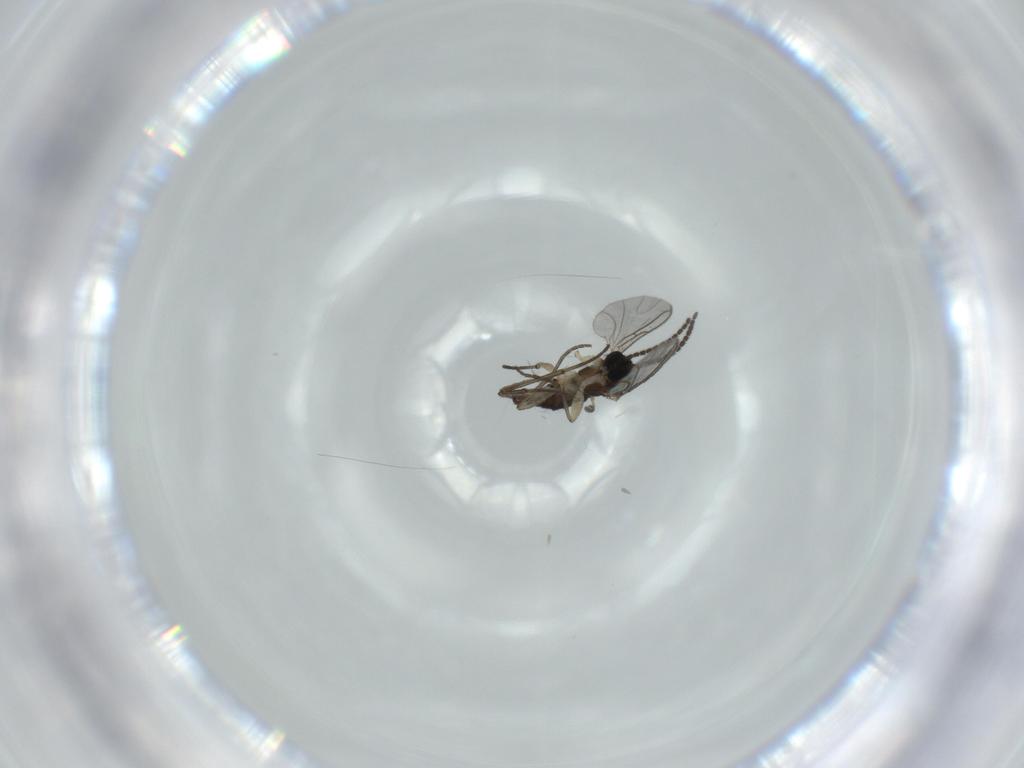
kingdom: Animalia
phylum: Arthropoda
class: Insecta
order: Diptera
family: Sciaridae
